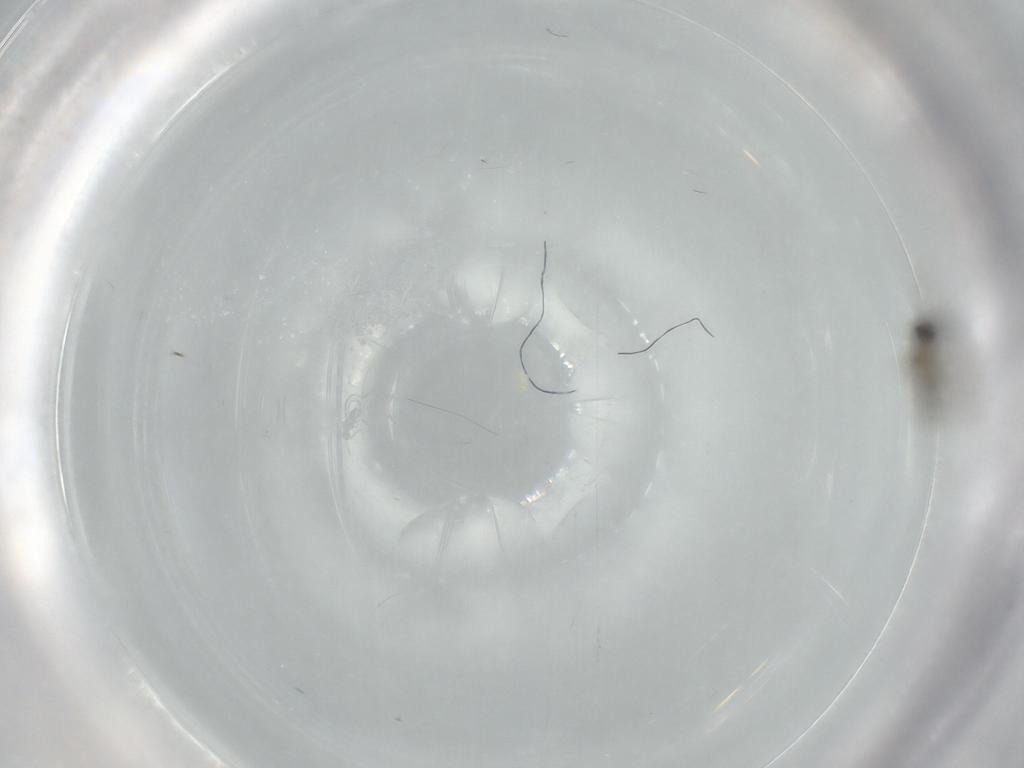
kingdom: Animalia
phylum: Arthropoda
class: Insecta
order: Diptera
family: Cecidomyiidae
